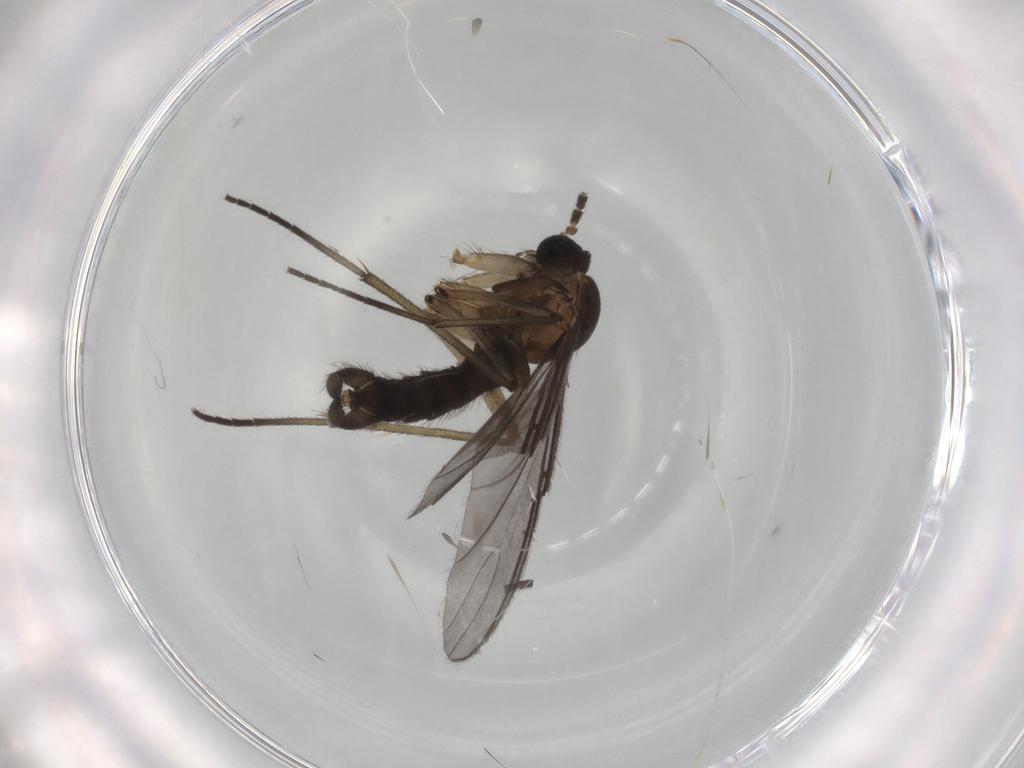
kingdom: Animalia
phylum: Arthropoda
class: Insecta
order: Diptera
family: Sciaridae
